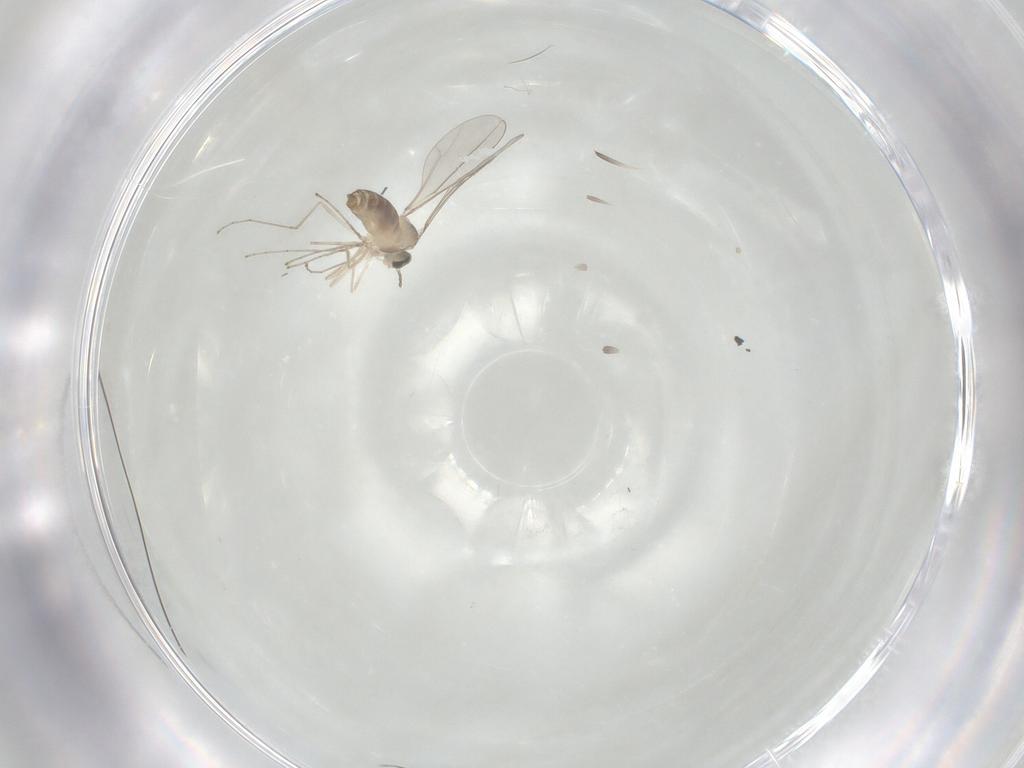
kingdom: Animalia
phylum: Arthropoda
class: Insecta
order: Diptera
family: Cecidomyiidae
